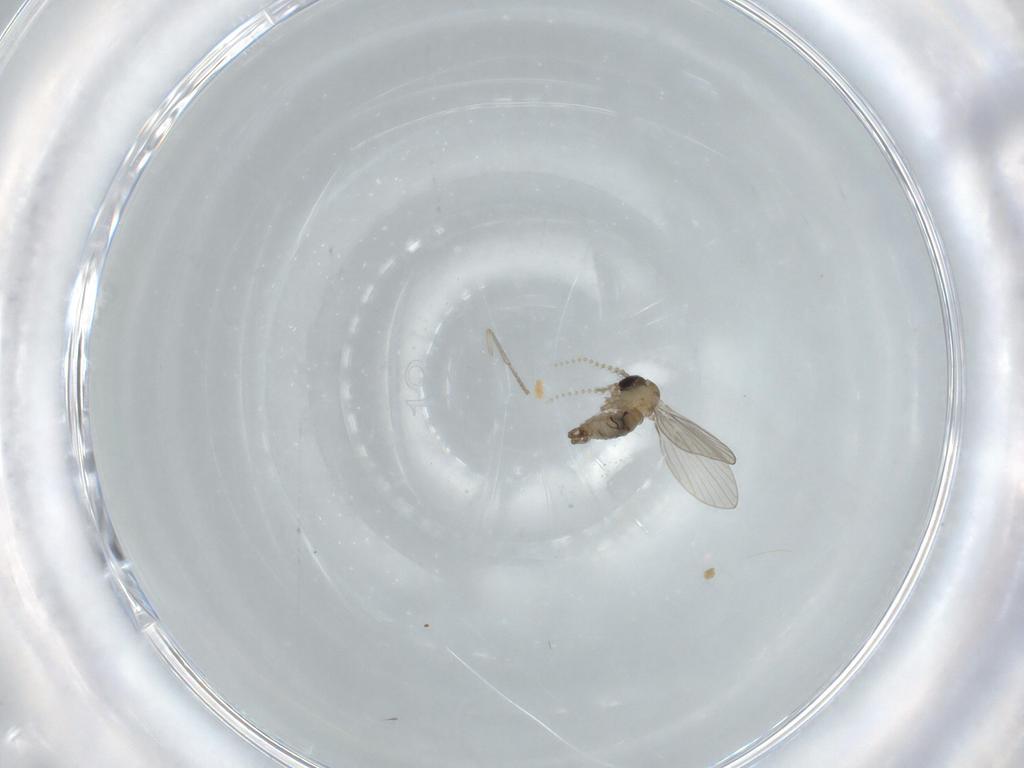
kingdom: Animalia
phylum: Arthropoda
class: Insecta
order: Diptera
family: Psychodidae
